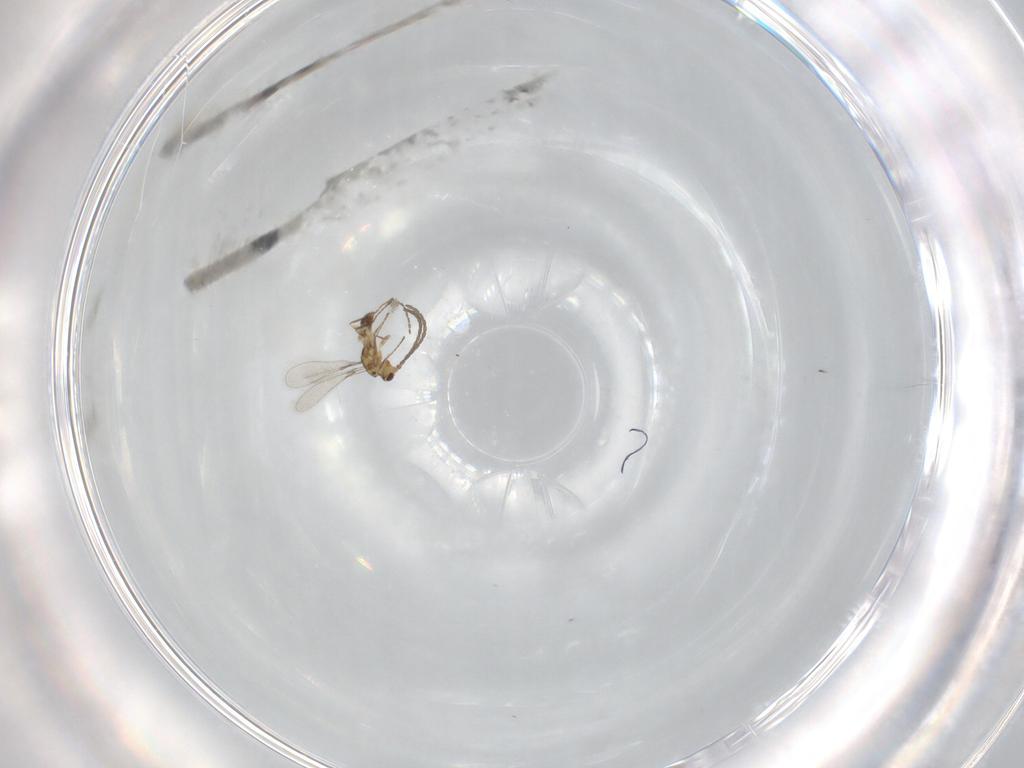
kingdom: Animalia
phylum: Arthropoda
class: Insecta
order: Hymenoptera
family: Mymaridae
